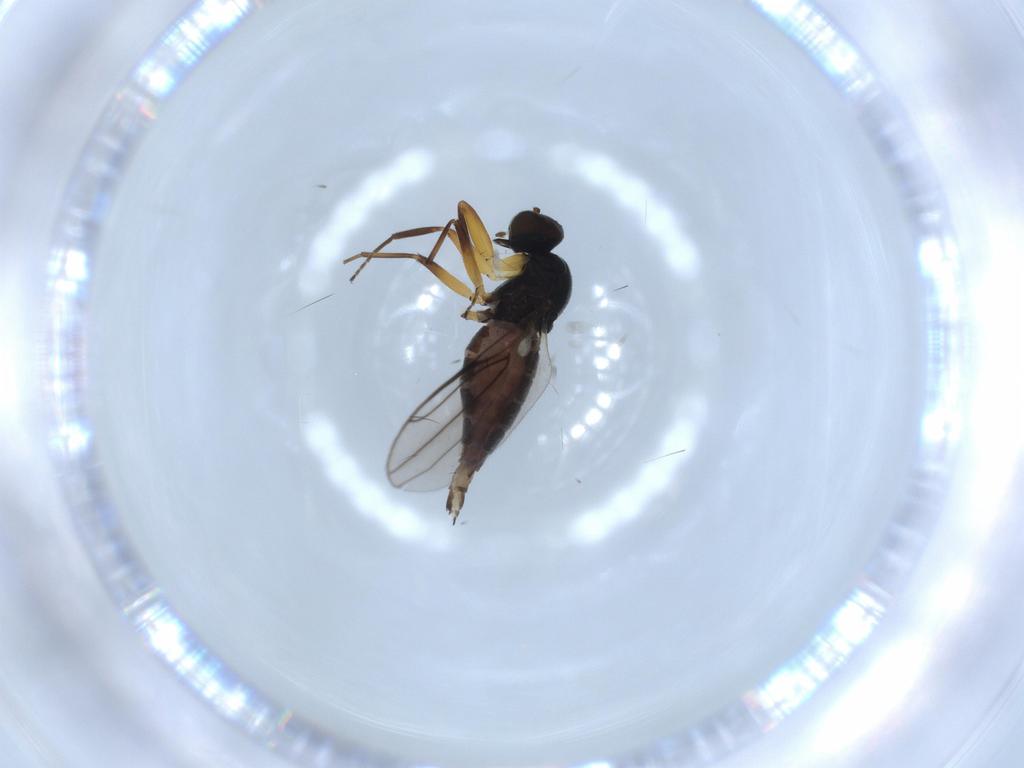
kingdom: Animalia
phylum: Arthropoda
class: Insecta
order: Diptera
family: Hybotidae
